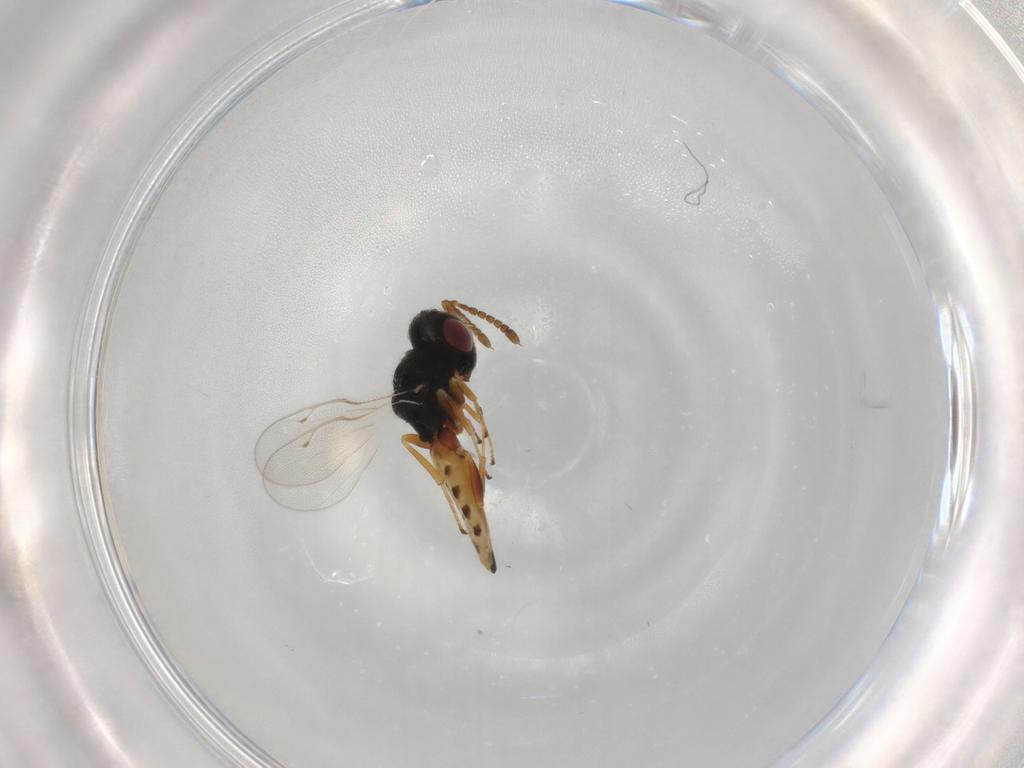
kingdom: Animalia
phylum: Arthropoda
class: Insecta
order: Hymenoptera
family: Pteromalidae
